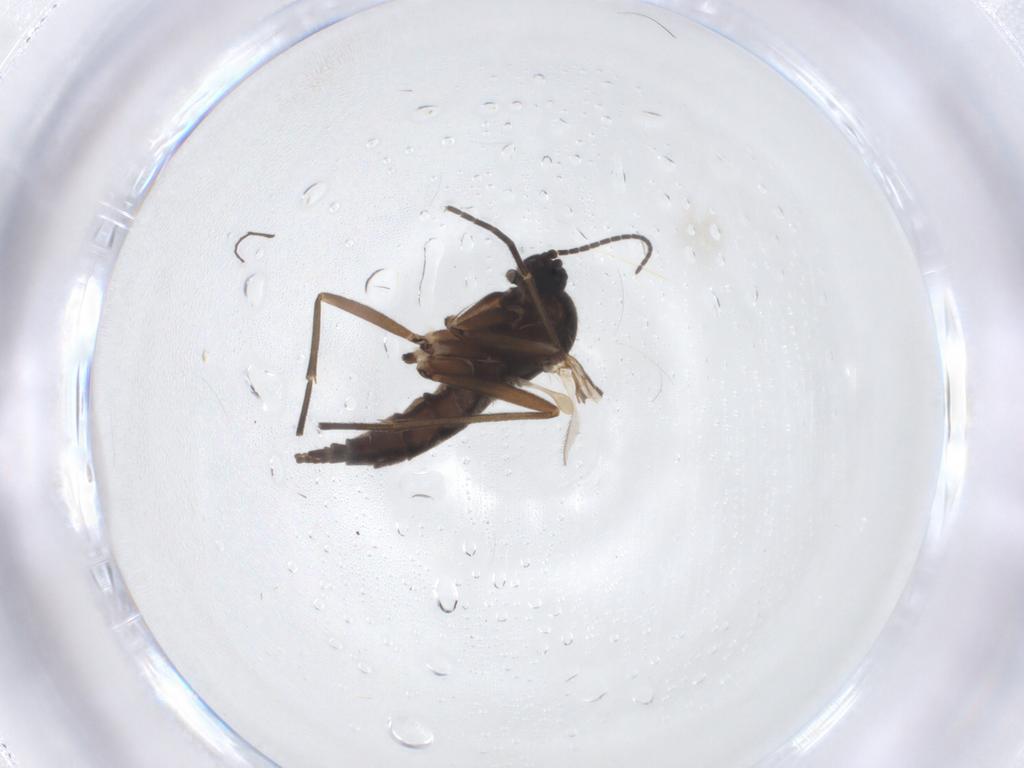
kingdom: Animalia
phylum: Arthropoda
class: Insecta
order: Diptera
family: Sciaridae
